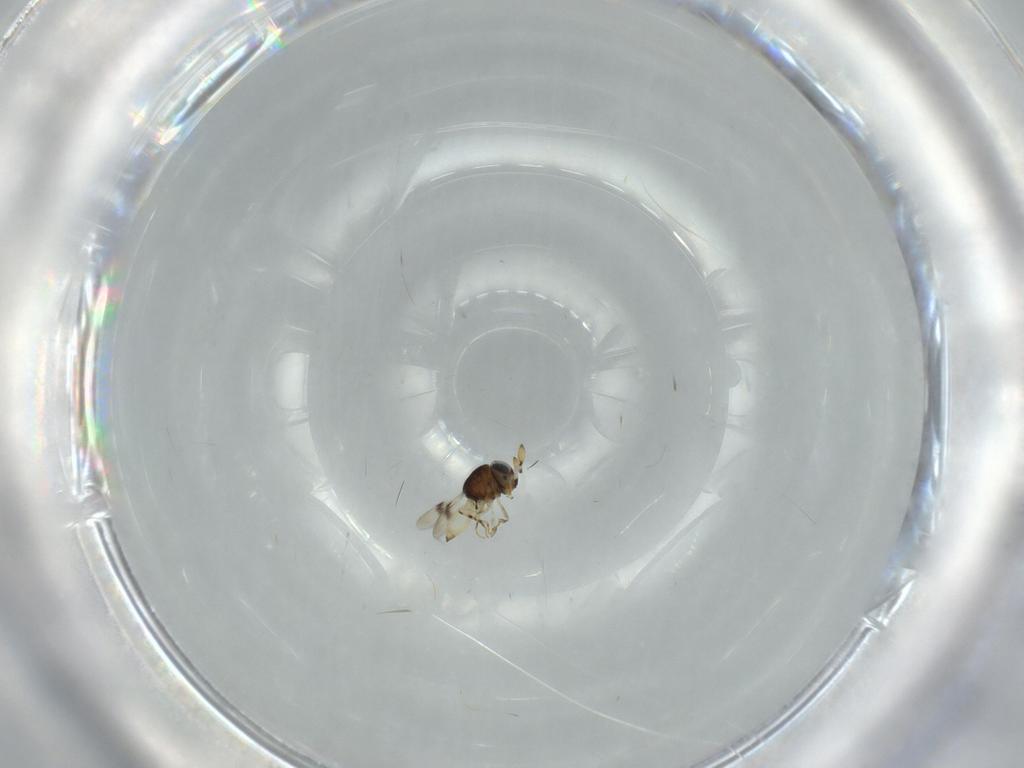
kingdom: Animalia
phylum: Arthropoda
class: Insecta
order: Hymenoptera
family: Scelionidae
